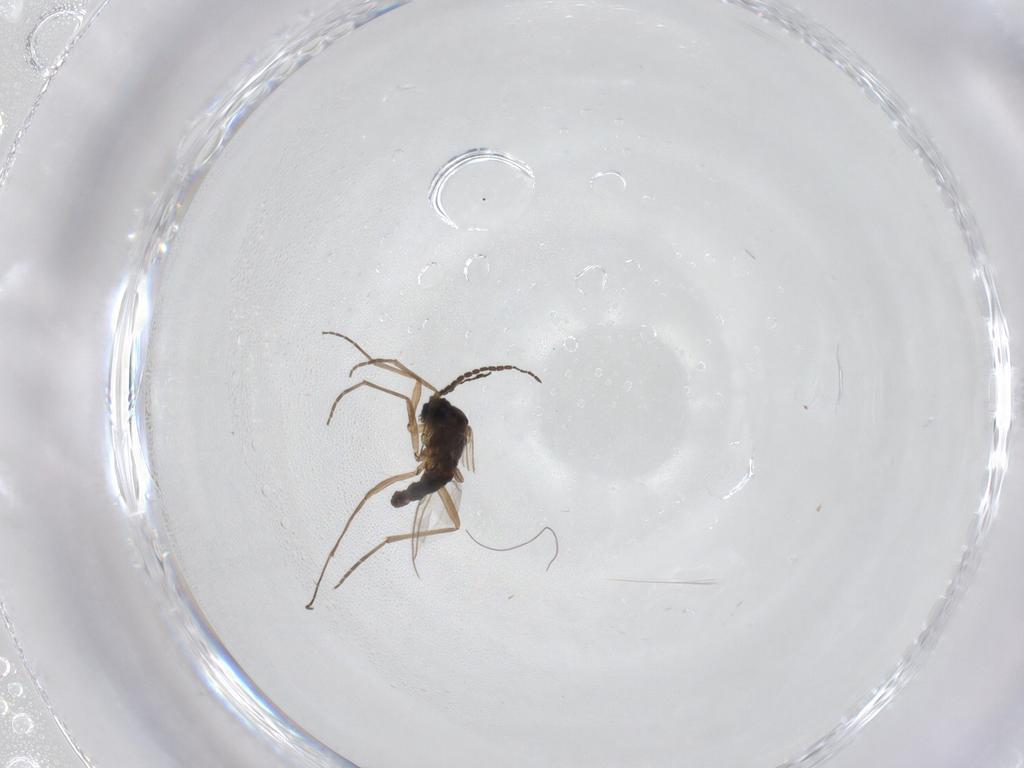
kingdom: Animalia
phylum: Arthropoda
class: Insecta
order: Diptera
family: Sciaridae
